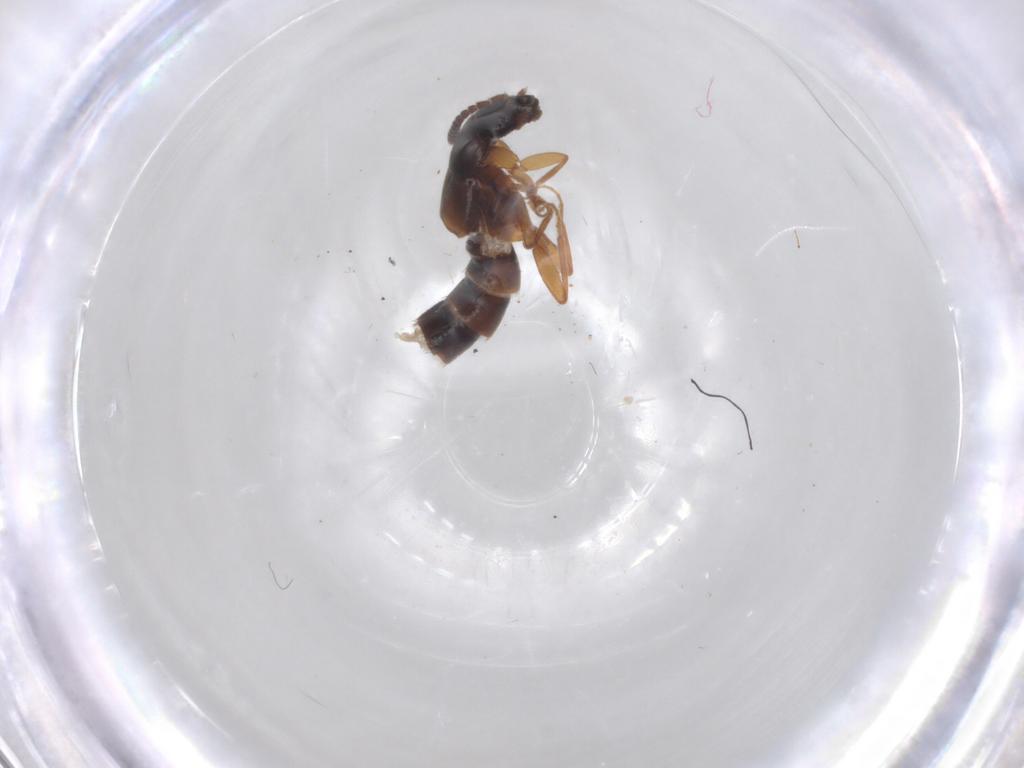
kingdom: Animalia
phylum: Arthropoda
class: Insecta
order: Coleoptera
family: Staphylinidae
